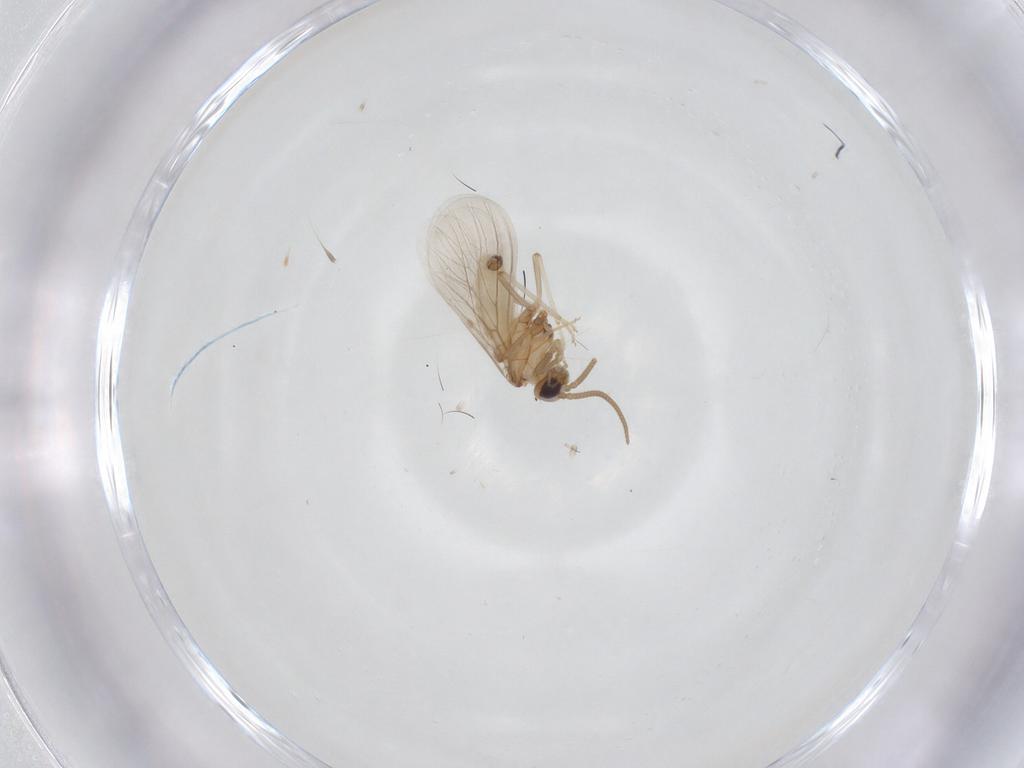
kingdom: Animalia
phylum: Arthropoda
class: Insecta
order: Neuroptera
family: Coniopterygidae
